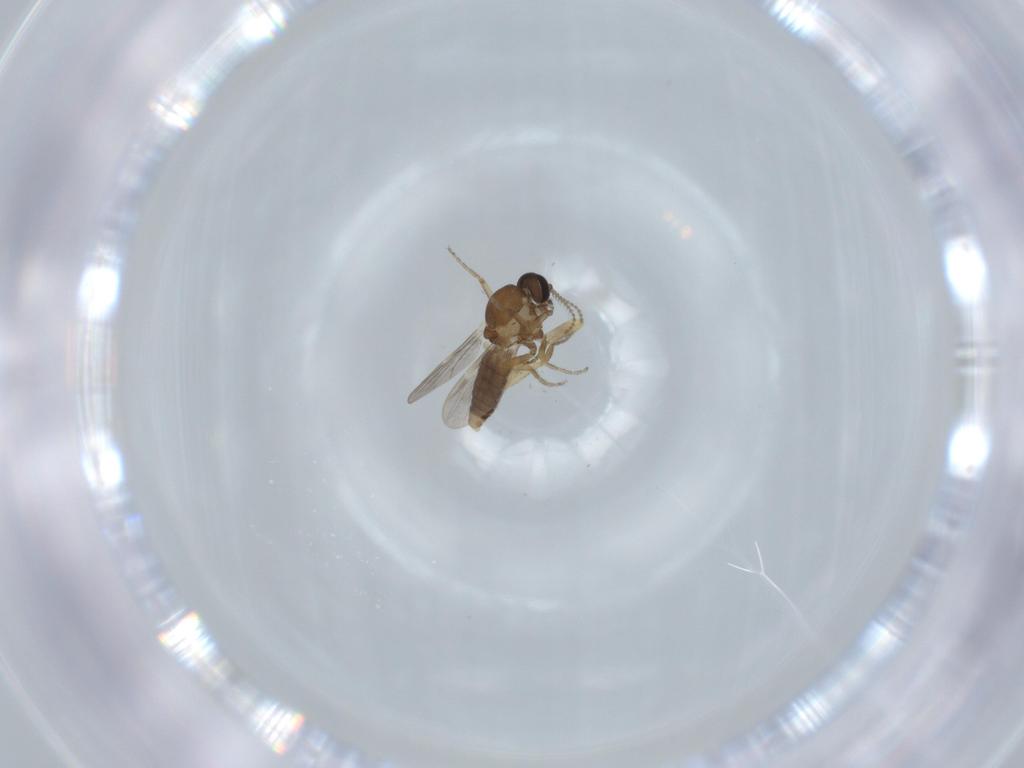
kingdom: Animalia
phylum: Arthropoda
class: Insecta
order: Diptera
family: Ceratopogonidae
